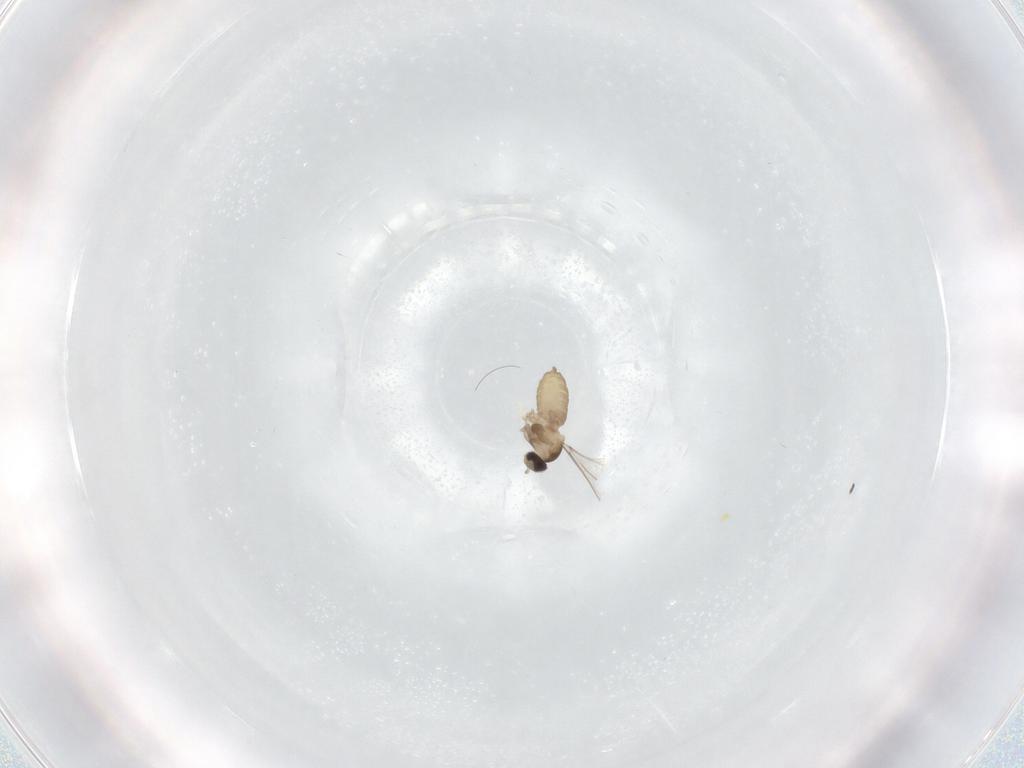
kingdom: Animalia
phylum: Arthropoda
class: Insecta
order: Diptera
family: Cecidomyiidae
